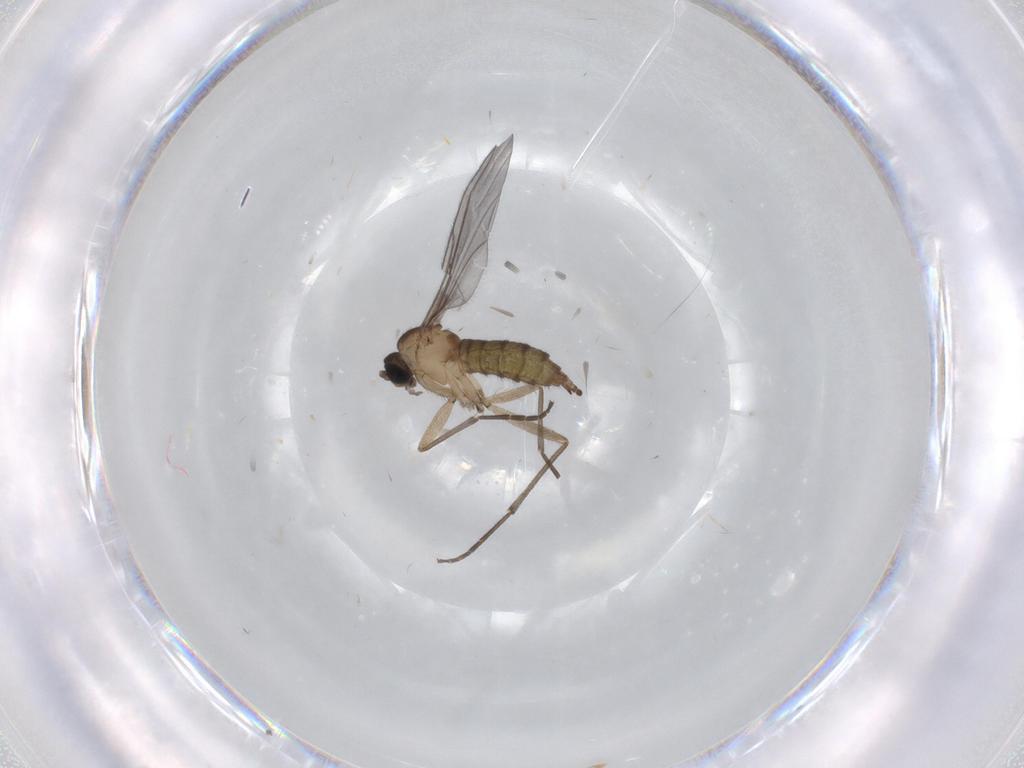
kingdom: Animalia
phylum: Arthropoda
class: Insecta
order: Diptera
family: Sciaridae
